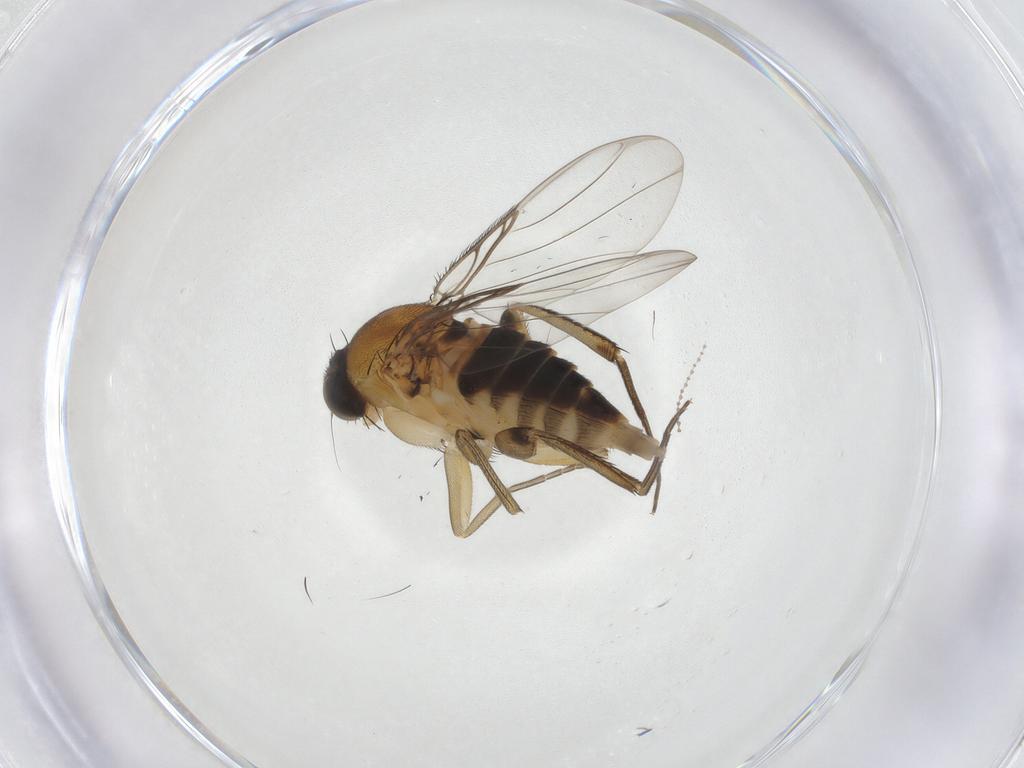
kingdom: Animalia
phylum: Arthropoda
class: Insecta
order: Diptera
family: Phoridae
